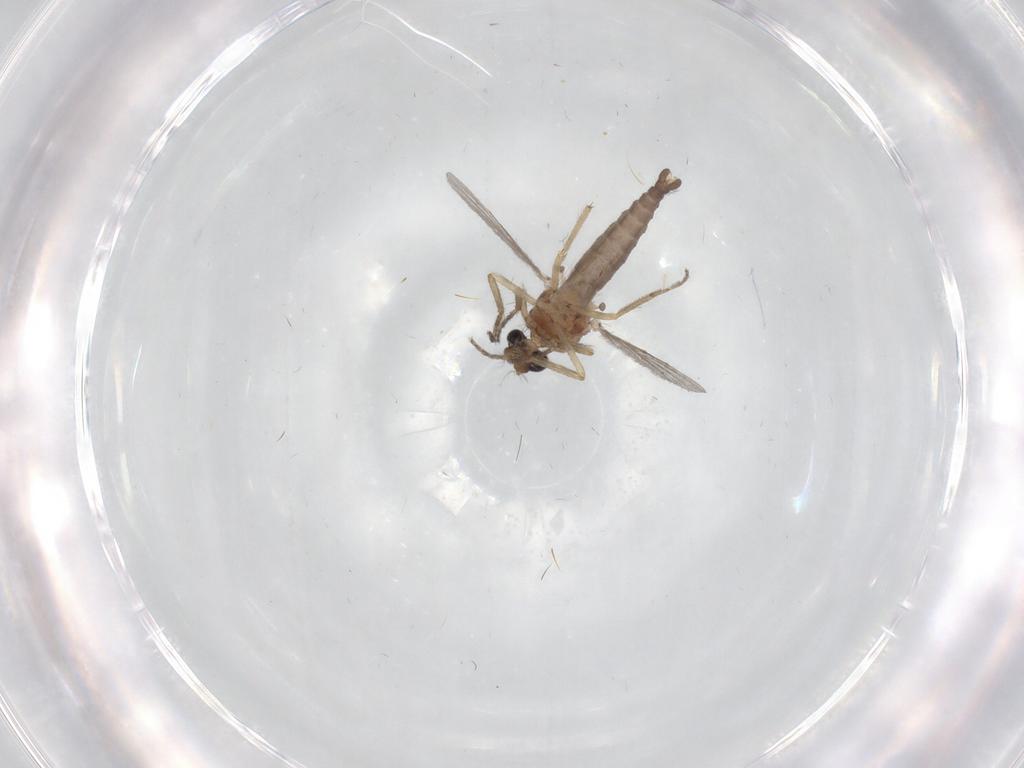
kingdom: Animalia
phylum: Arthropoda
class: Insecta
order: Diptera
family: Ceratopogonidae
